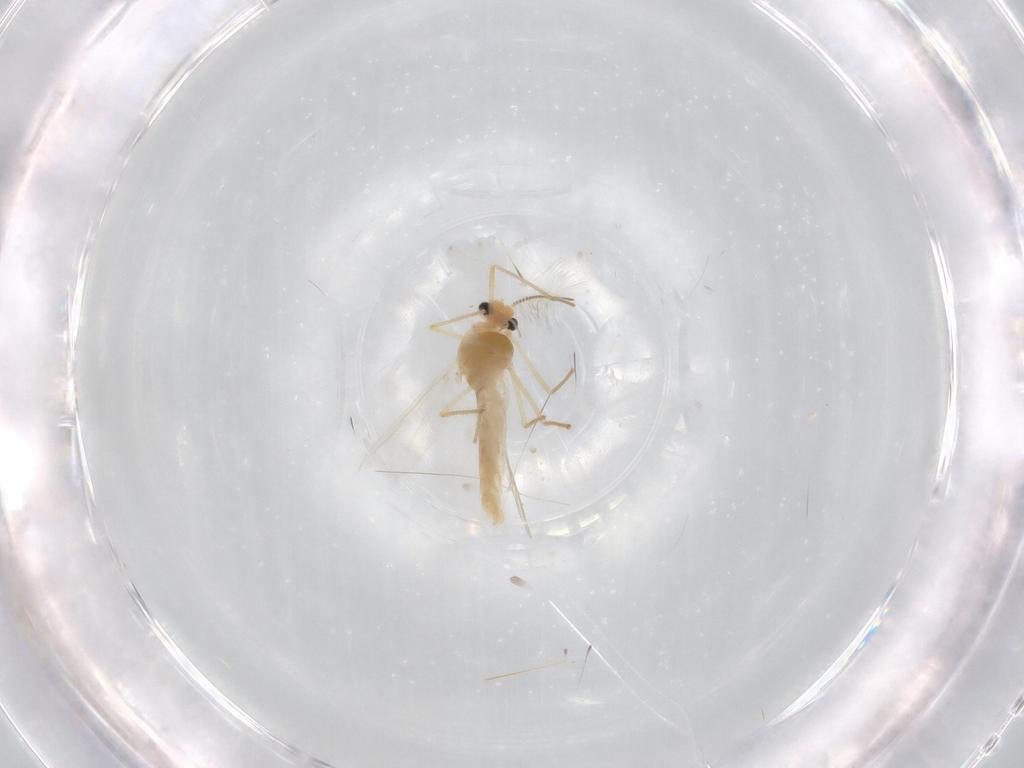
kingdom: Animalia
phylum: Arthropoda
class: Insecta
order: Diptera
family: Chironomidae
